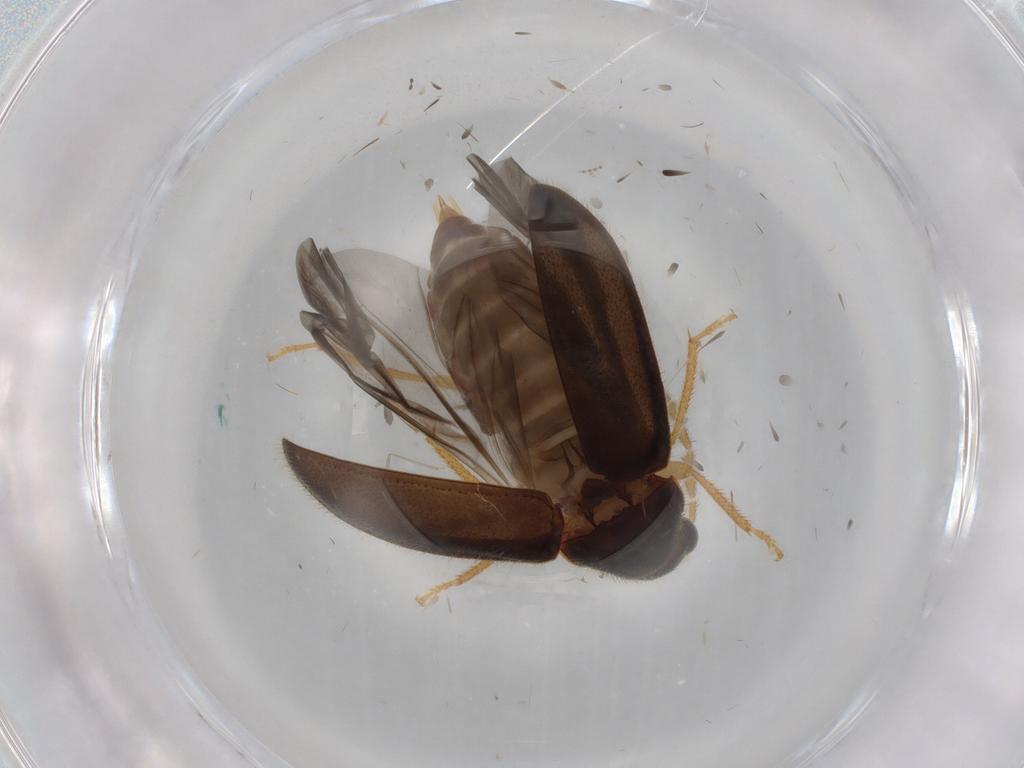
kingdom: Animalia
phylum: Arthropoda
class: Insecta
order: Coleoptera
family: Ptilodactylidae
